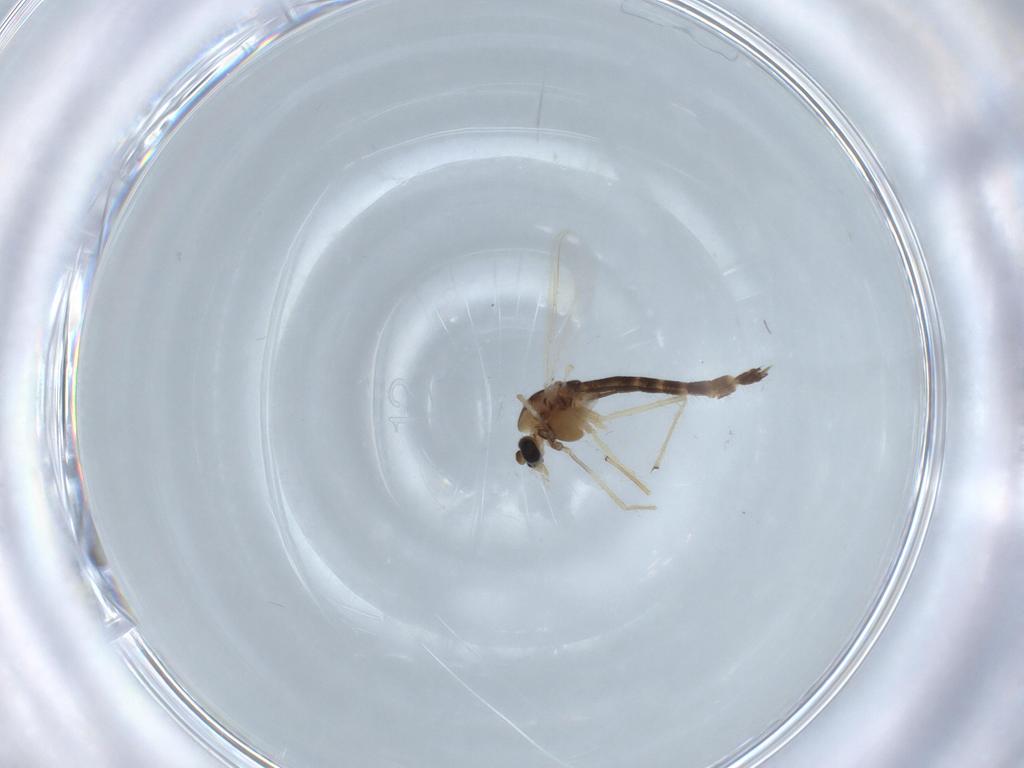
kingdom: Animalia
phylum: Arthropoda
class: Insecta
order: Diptera
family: Chironomidae
